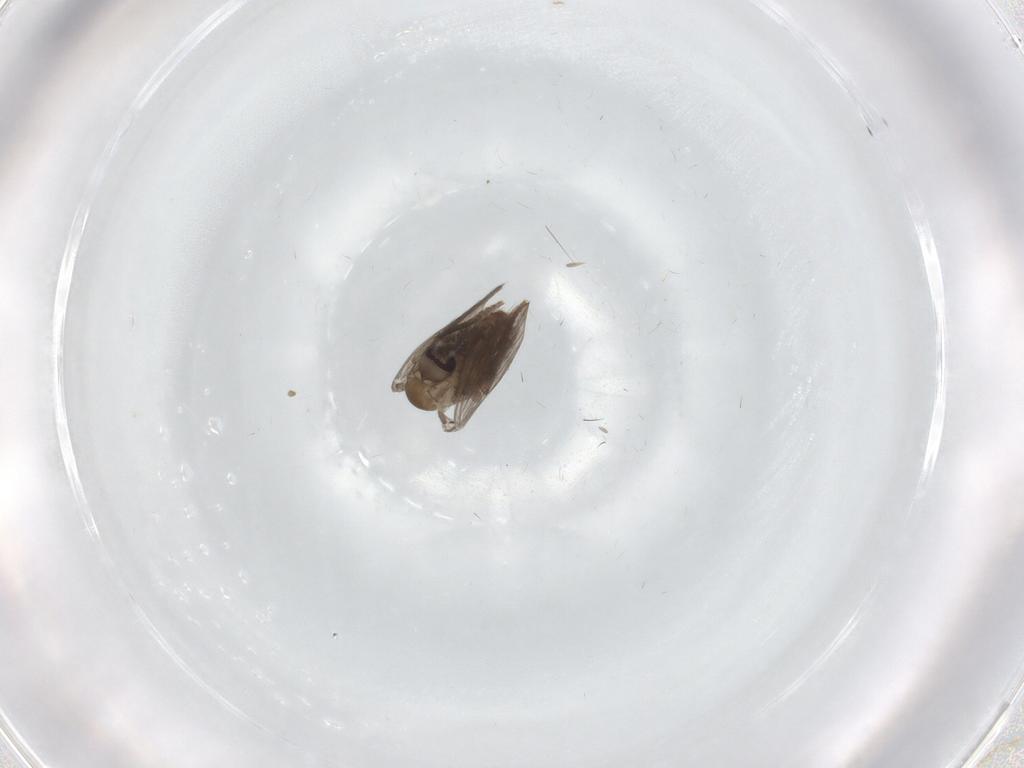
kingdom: Animalia
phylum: Arthropoda
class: Insecta
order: Diptera
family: Psychodidae
